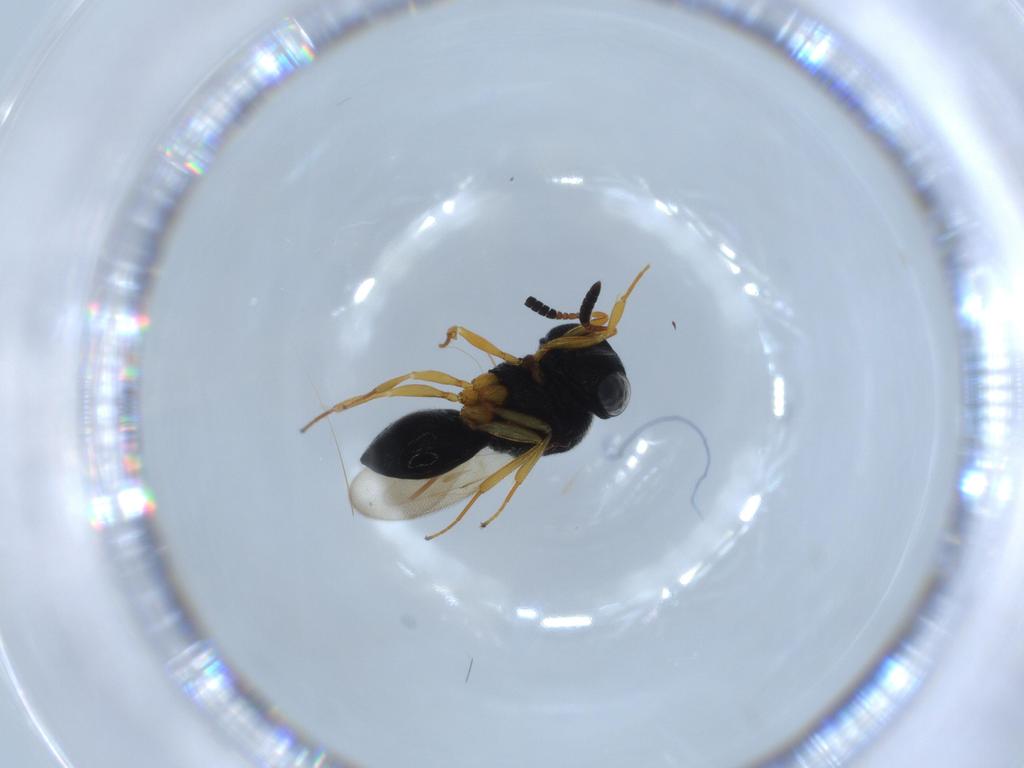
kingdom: Animalia
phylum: Arthropoda
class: Insecta
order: Hymenoptera
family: Scelionidae
